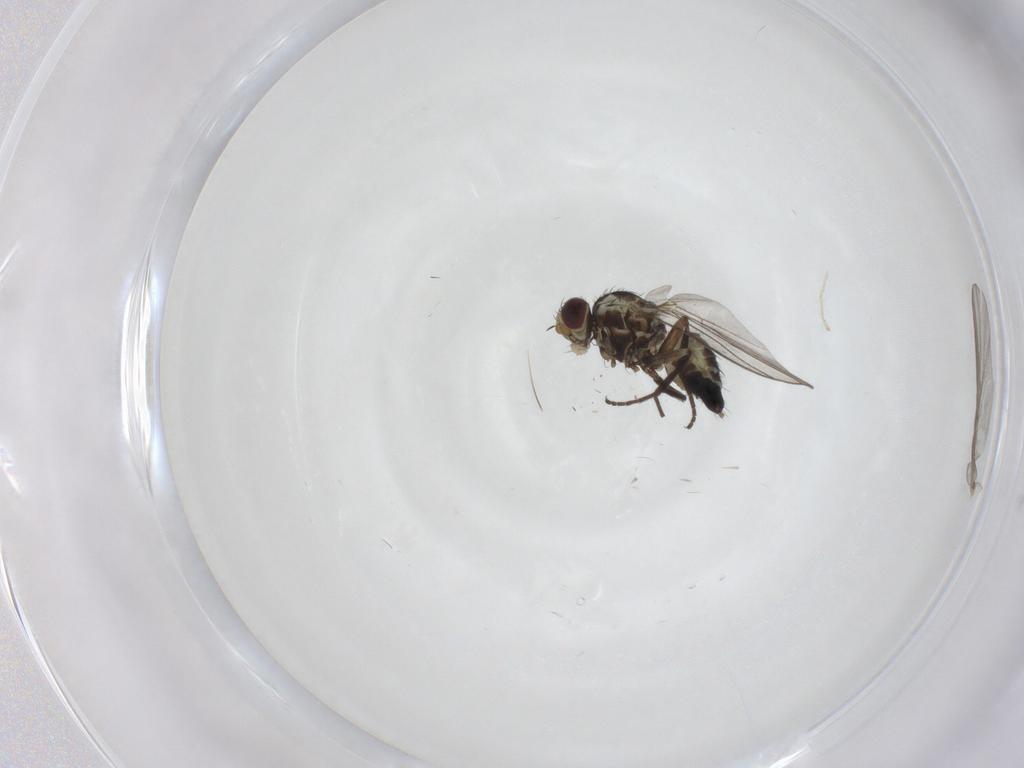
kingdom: Animalia
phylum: Arthropoda
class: Insecta
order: Diptera
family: Agromyzidae
